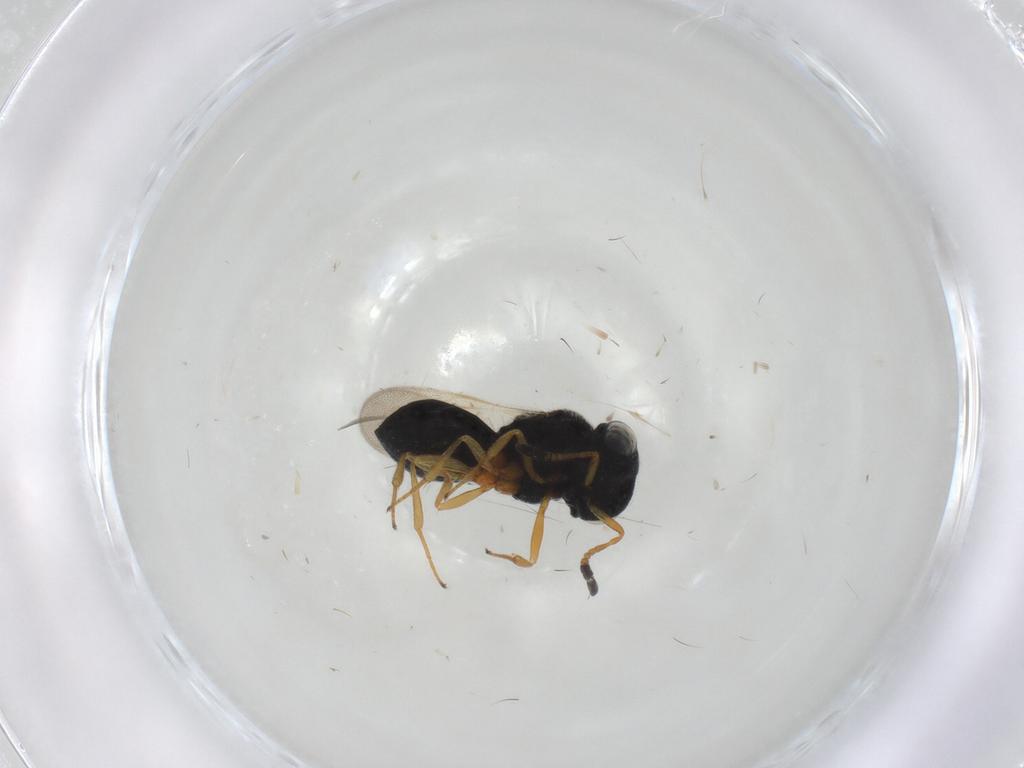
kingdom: Animalia
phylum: Arthropoda
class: Insecta
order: Hymenoptera
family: Scelionidae
